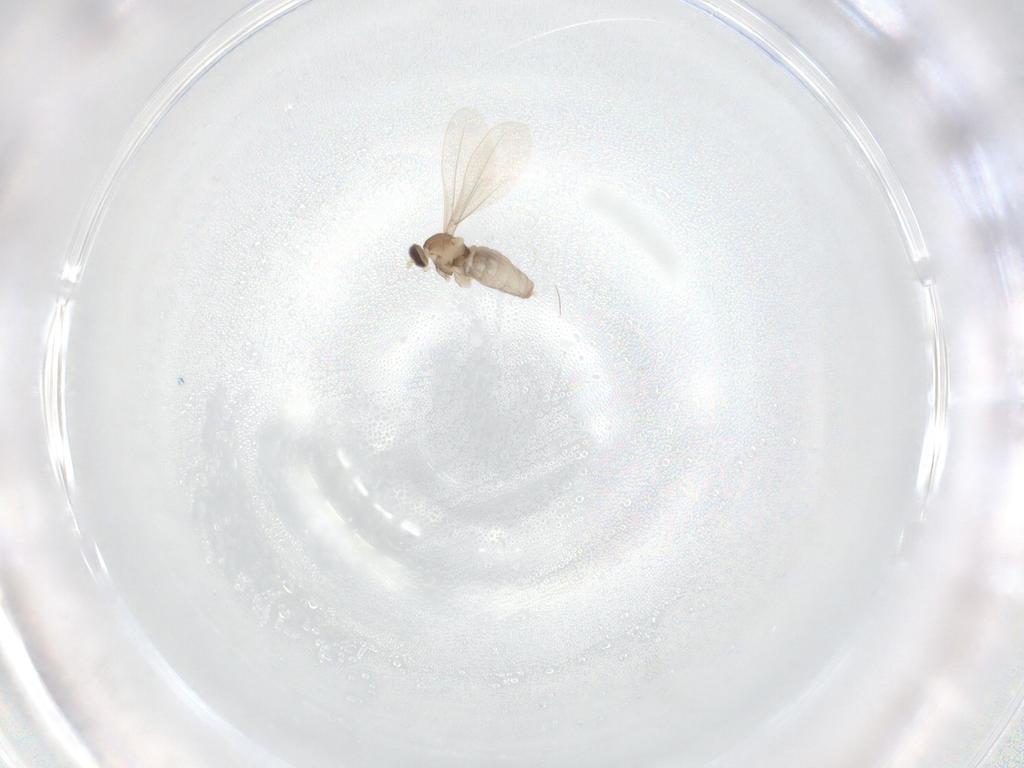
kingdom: Animalia
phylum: Arthropoda
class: Insecta
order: Diptera
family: Cecidomyiidae
